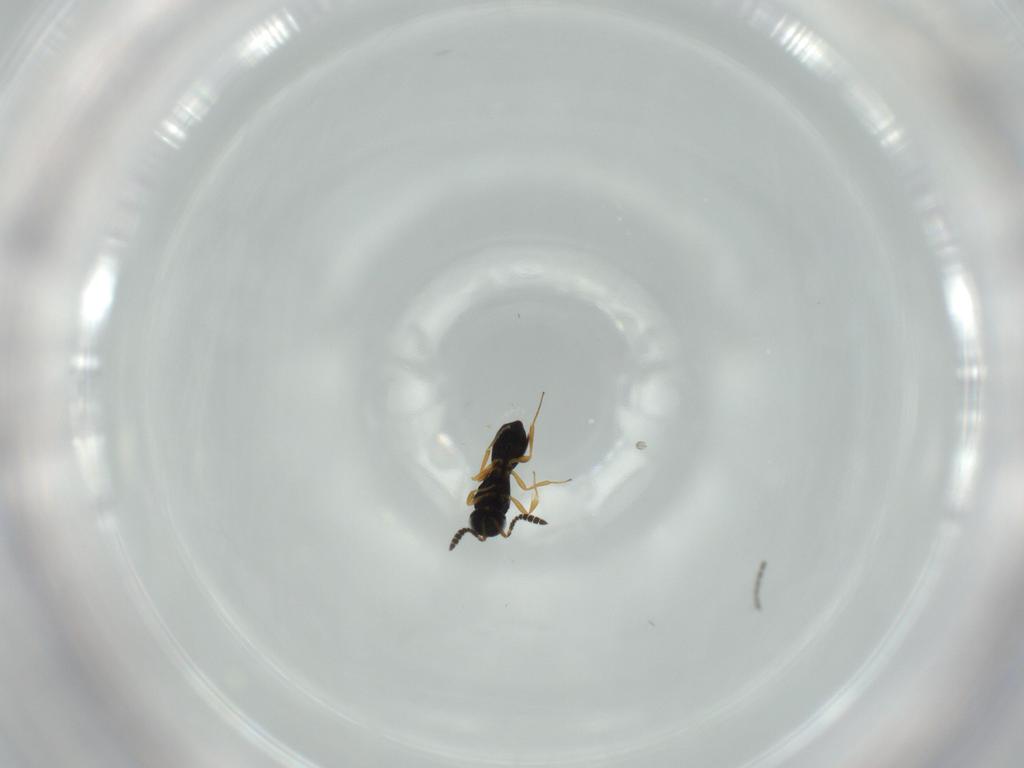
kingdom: Animalia
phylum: Arthropoda
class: Insecta
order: Hymenoptera
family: Scelionidae
